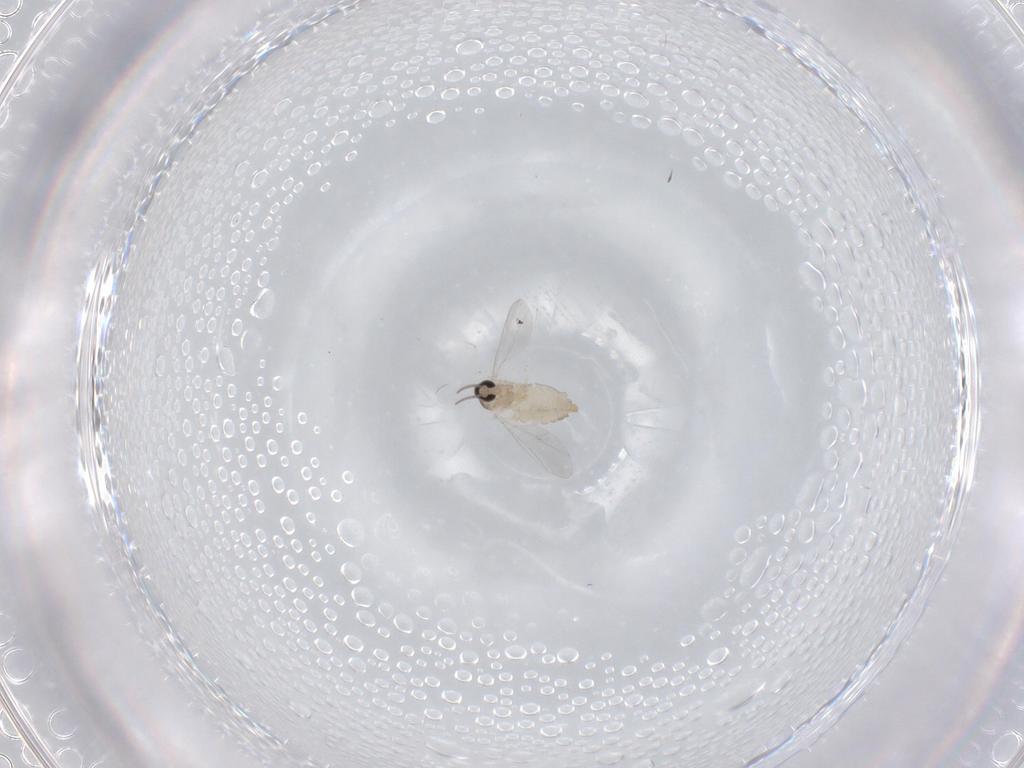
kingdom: Animalia
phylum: Arthropoda
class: Insecta
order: Diptera
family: Cecidomyiidae
